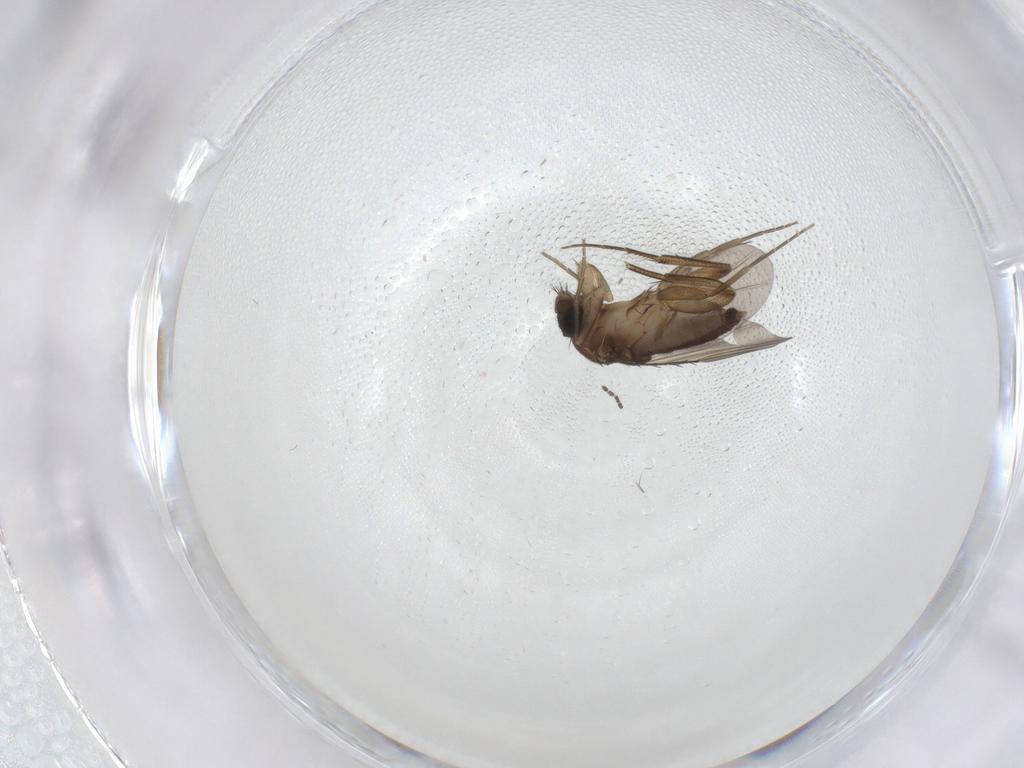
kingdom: Animalia
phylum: Arthropoda
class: Insecta
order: Diptera
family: Phoridae
